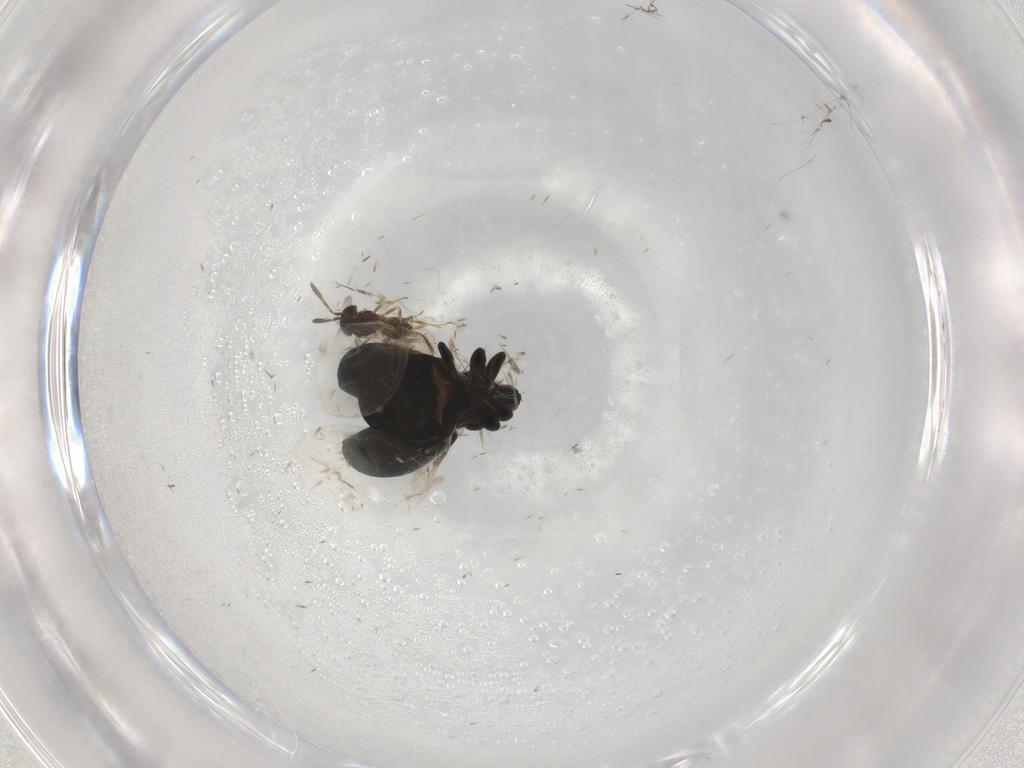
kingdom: Animalia
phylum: Arthropoda
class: Insecta
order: Coleoptera
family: Curculionidae
